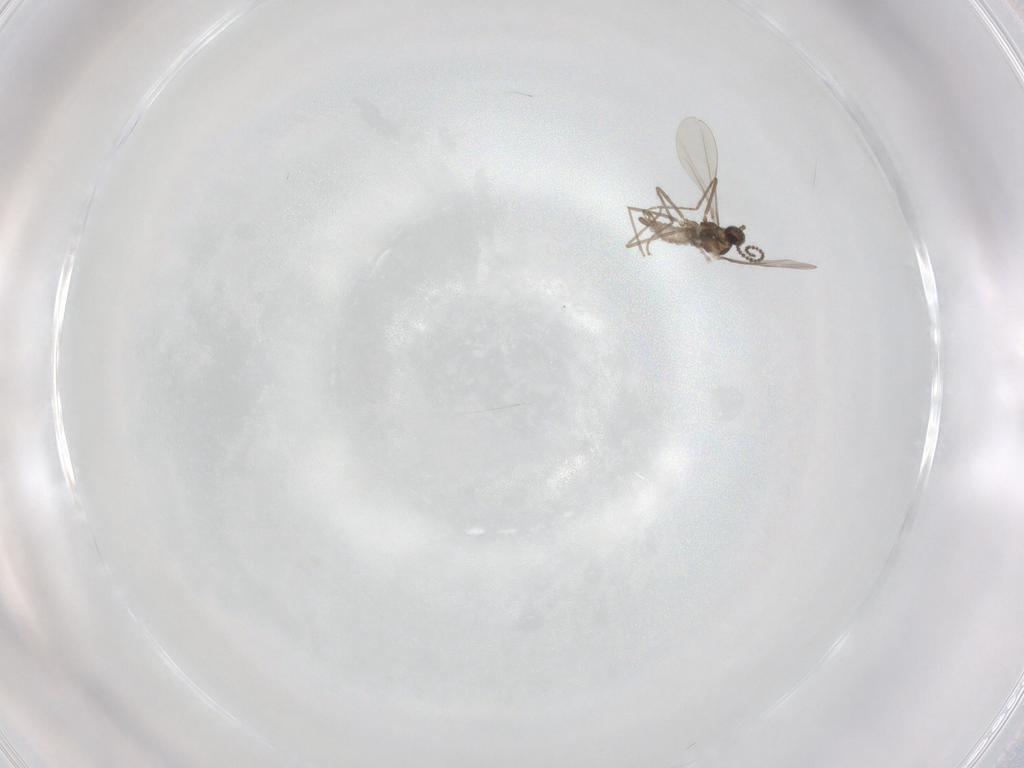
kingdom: Animalia
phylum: Arthropoda
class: Insecta
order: Diptera
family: Cecidomyiidae
